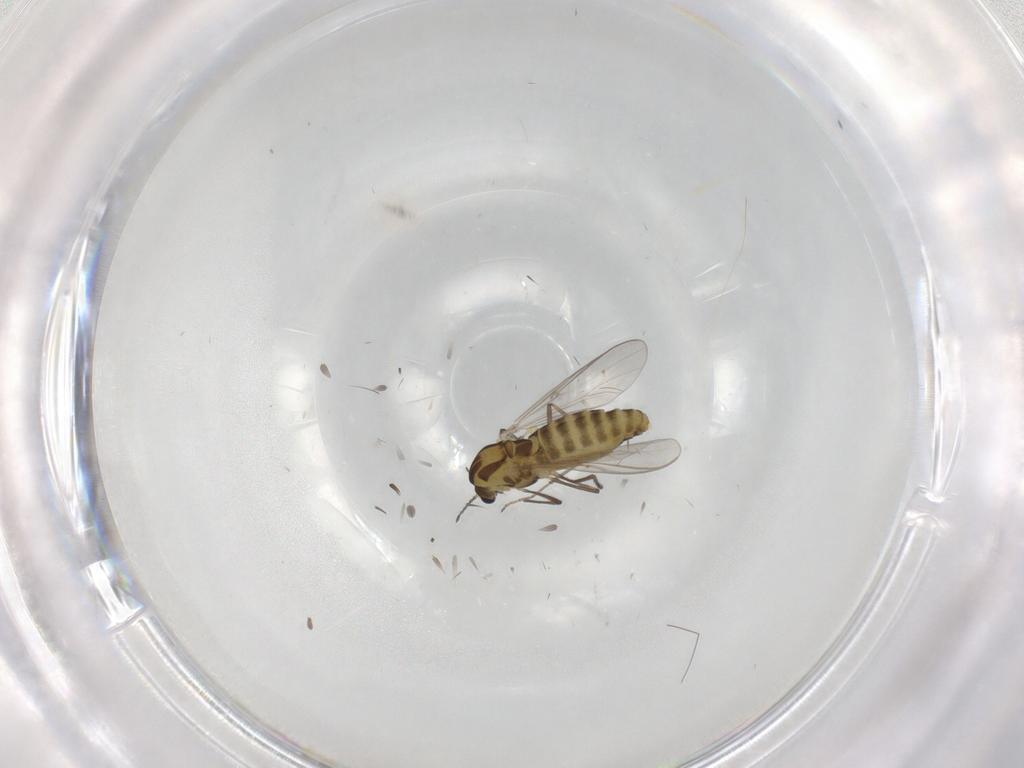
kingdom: Animalia
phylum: Arthropoda
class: Insecta
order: Diptera
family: Chironomidae
